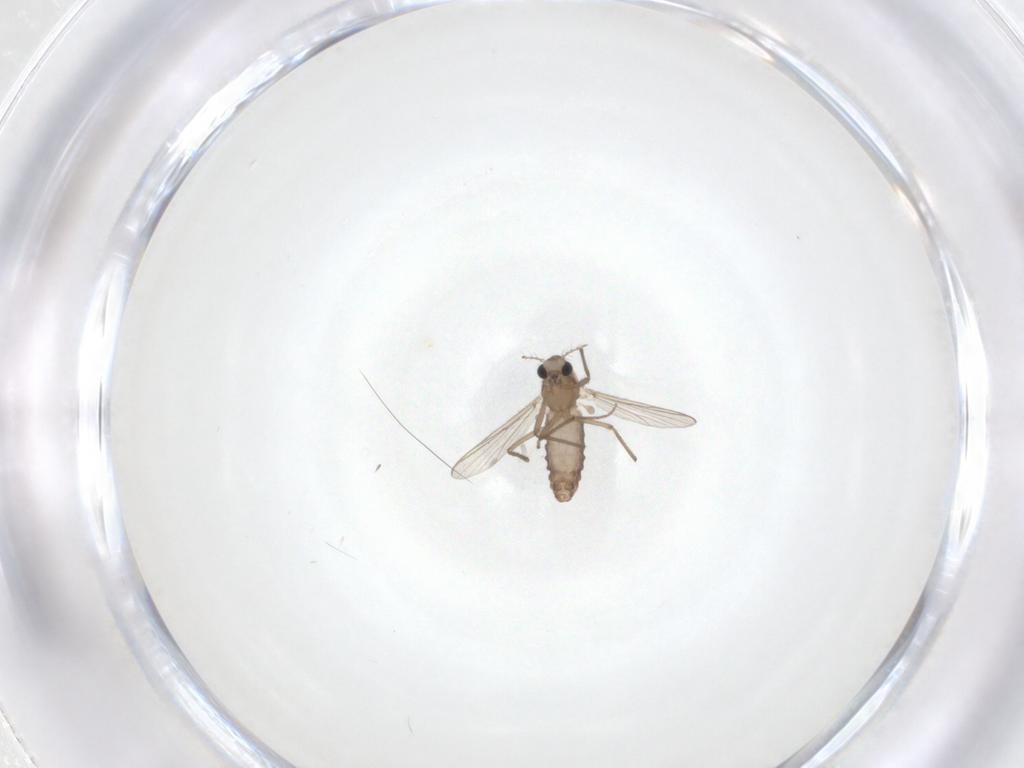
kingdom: Animalia
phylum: Arthropoda
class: Insecta
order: Diptera
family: Chironomidae
